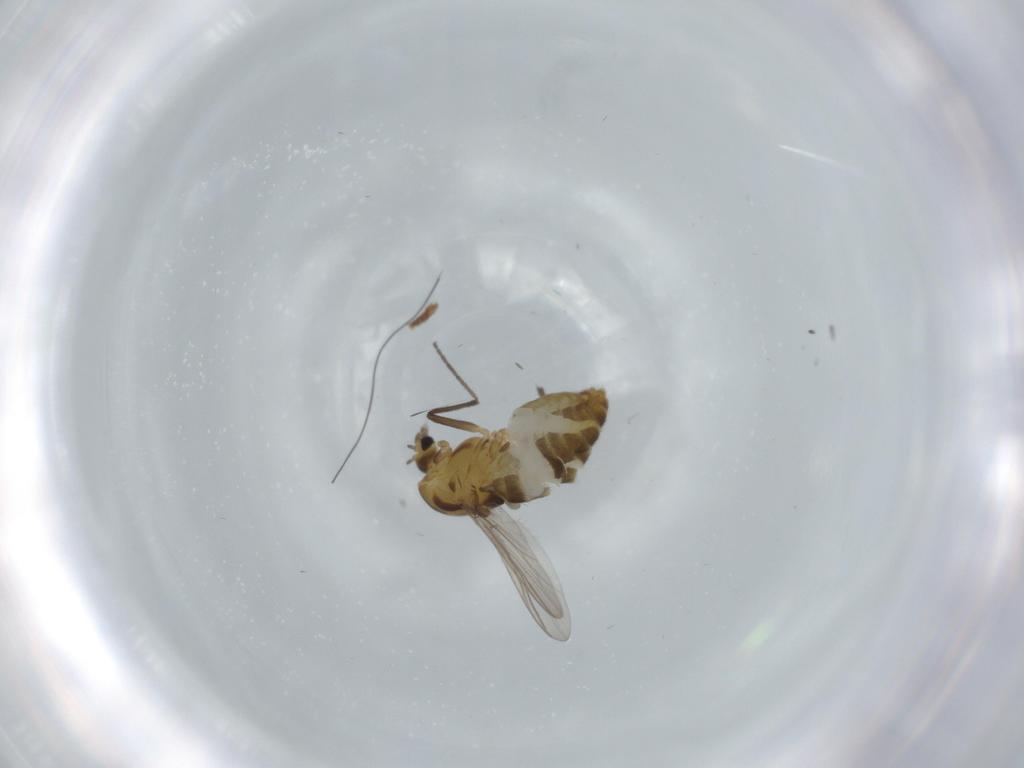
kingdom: Animalia
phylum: Arthropoda
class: Insecta
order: Diptera
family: Chironomidae
